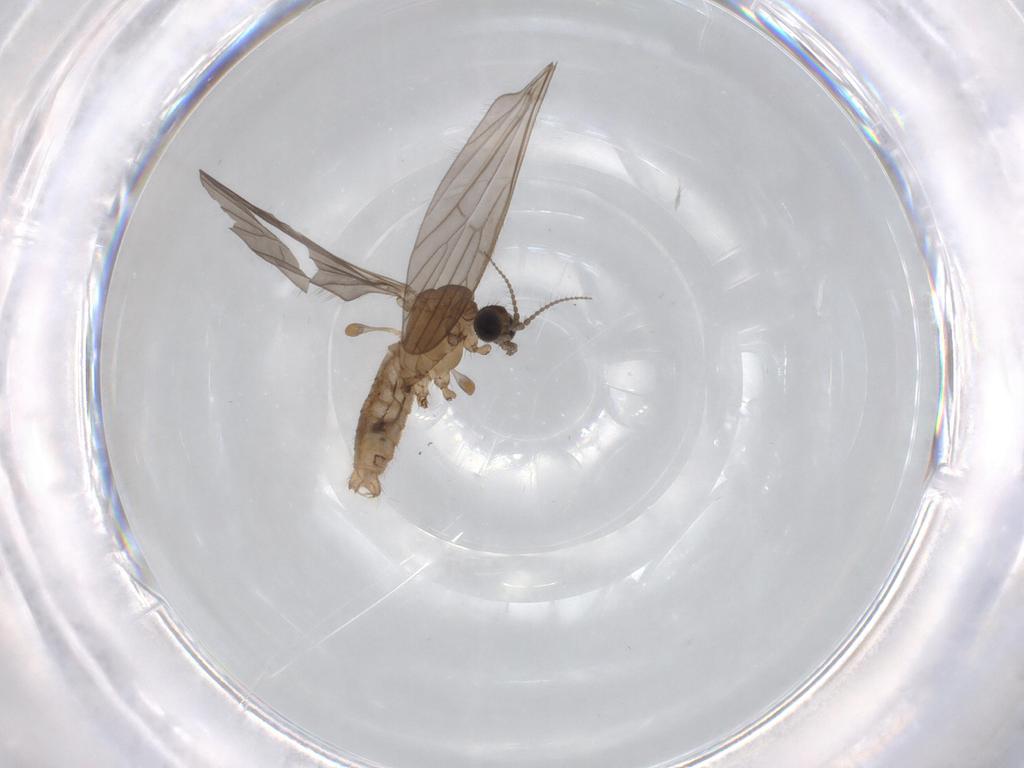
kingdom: Animalia
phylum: Arthropoda
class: Insecta
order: Diptera
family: Limoniidae
